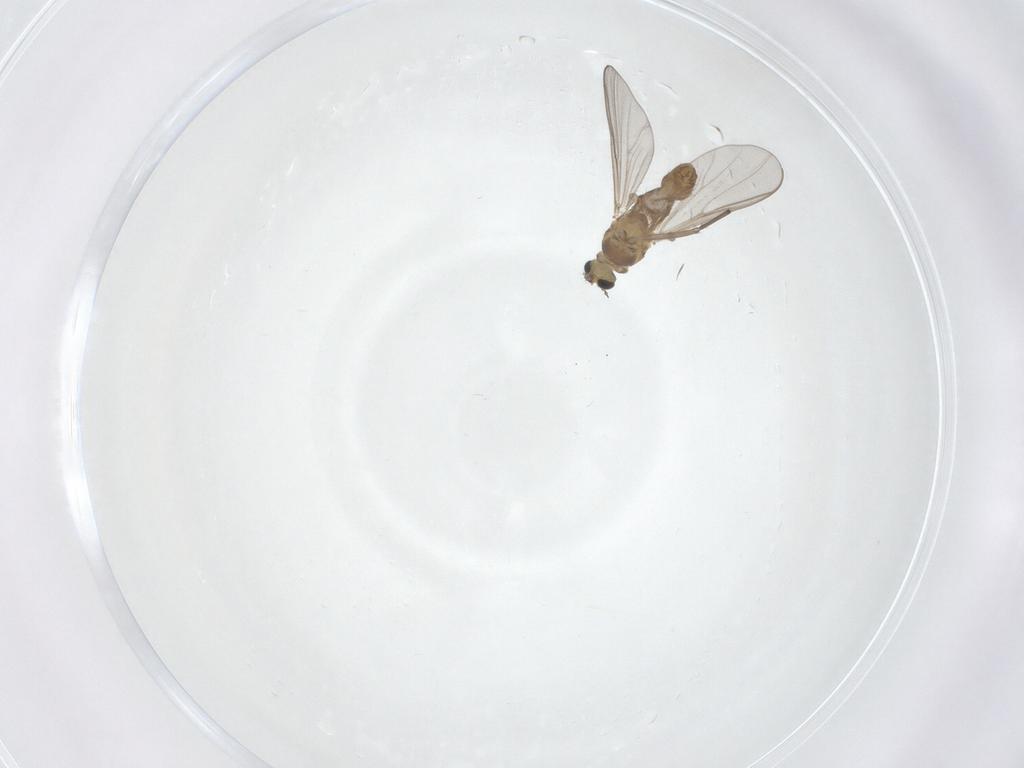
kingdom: Animalia
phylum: Arthropoda
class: Insecta
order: Diptera
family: Chironomidae
